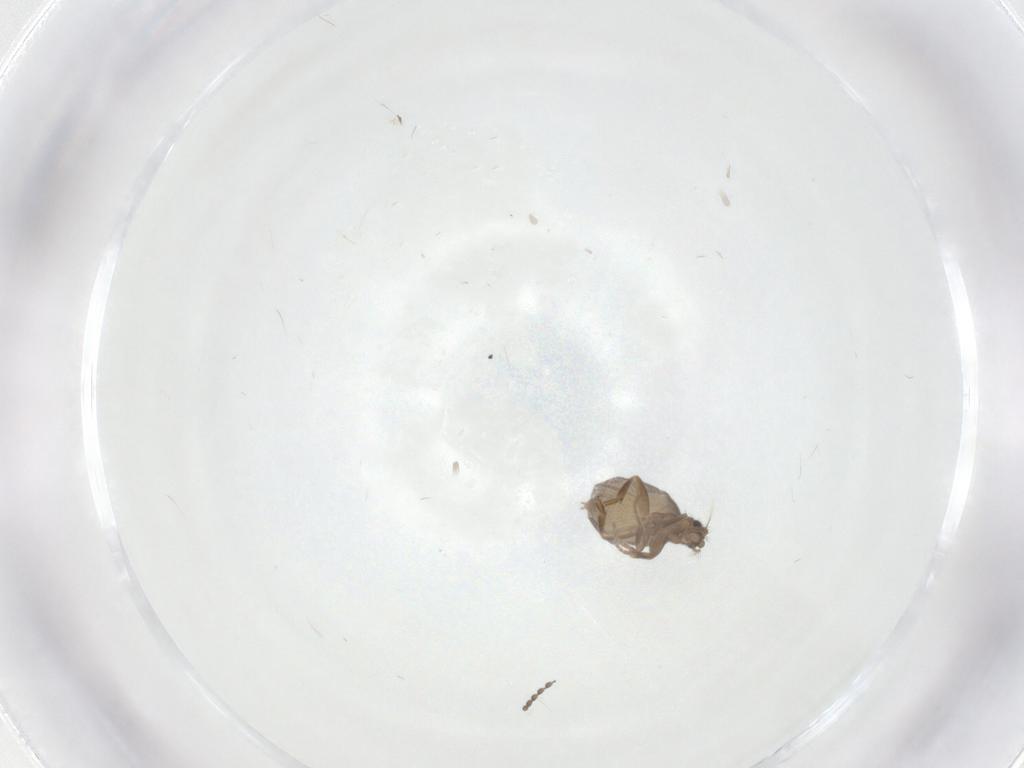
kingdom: Animalia
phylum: Arthropoda
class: Insecta
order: Diptera
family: Phoridae
